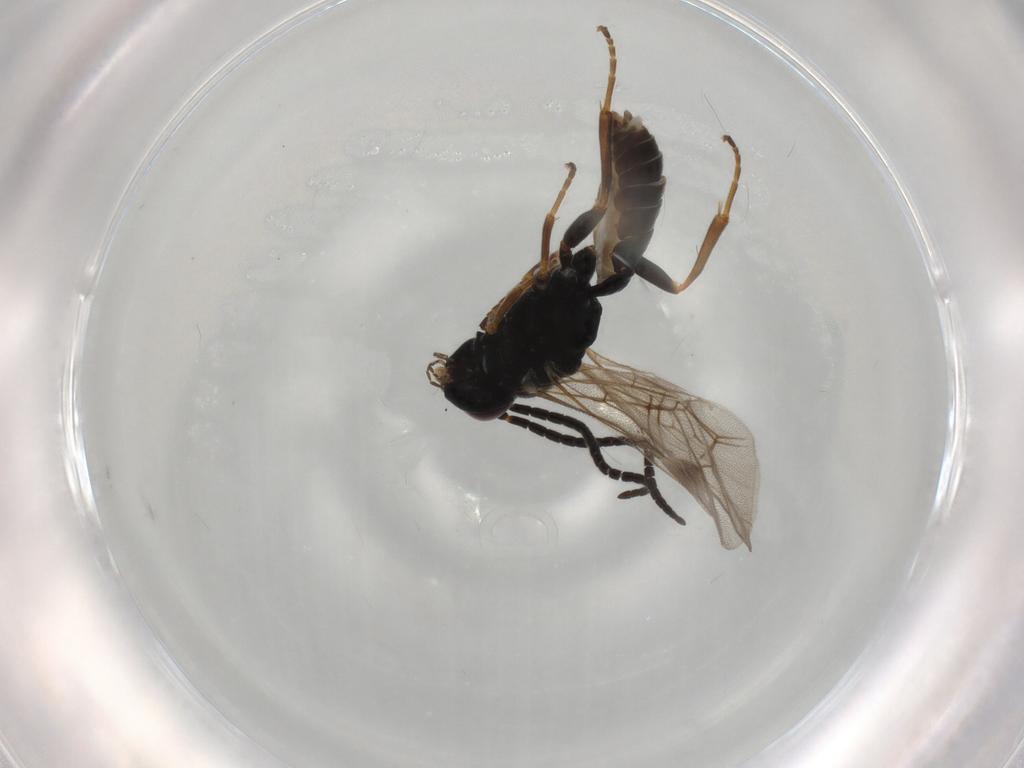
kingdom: Animalia
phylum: Arthropoda
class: Insecta
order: Hymenoptera
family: Ichneumonidae
